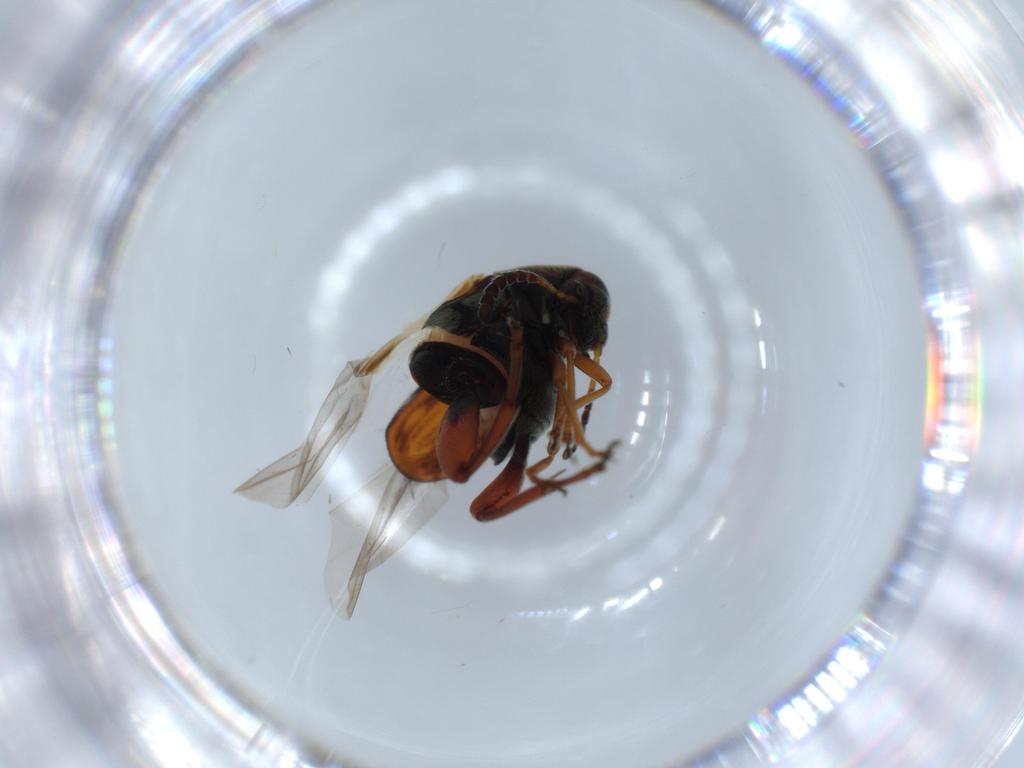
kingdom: Animalia
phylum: Arthropoda
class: Insecta
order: Coleoptera
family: Chrysomelidae
